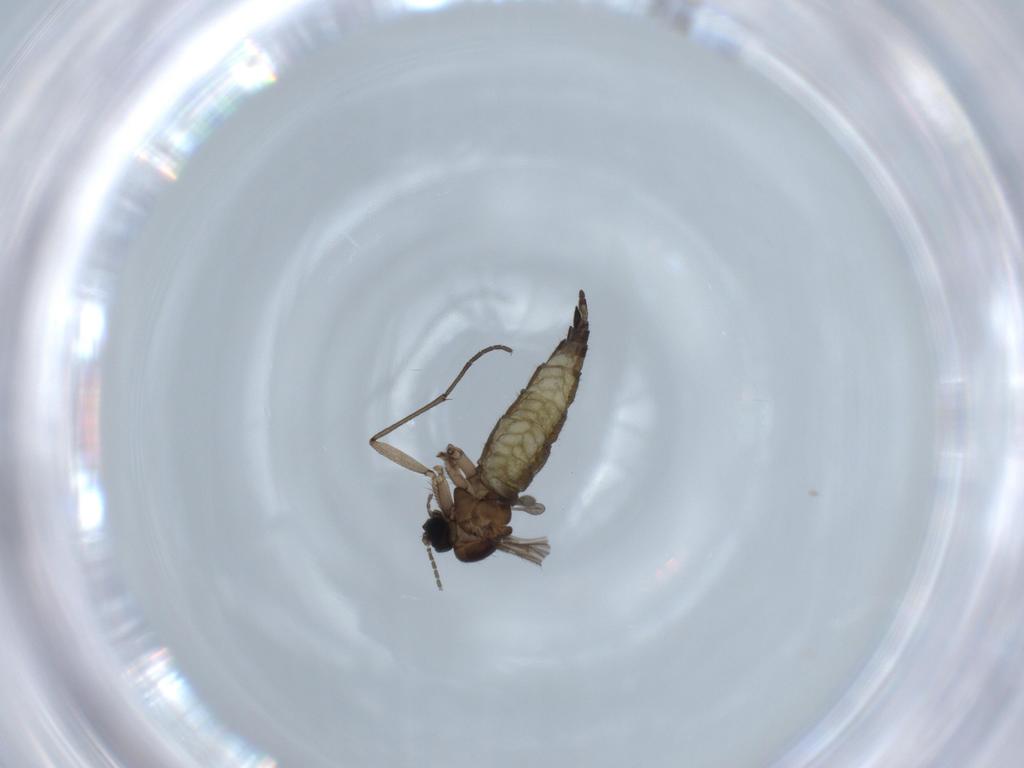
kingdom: Animalia
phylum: Arthropoda
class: Insecta
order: Diptera
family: Sciaridae
